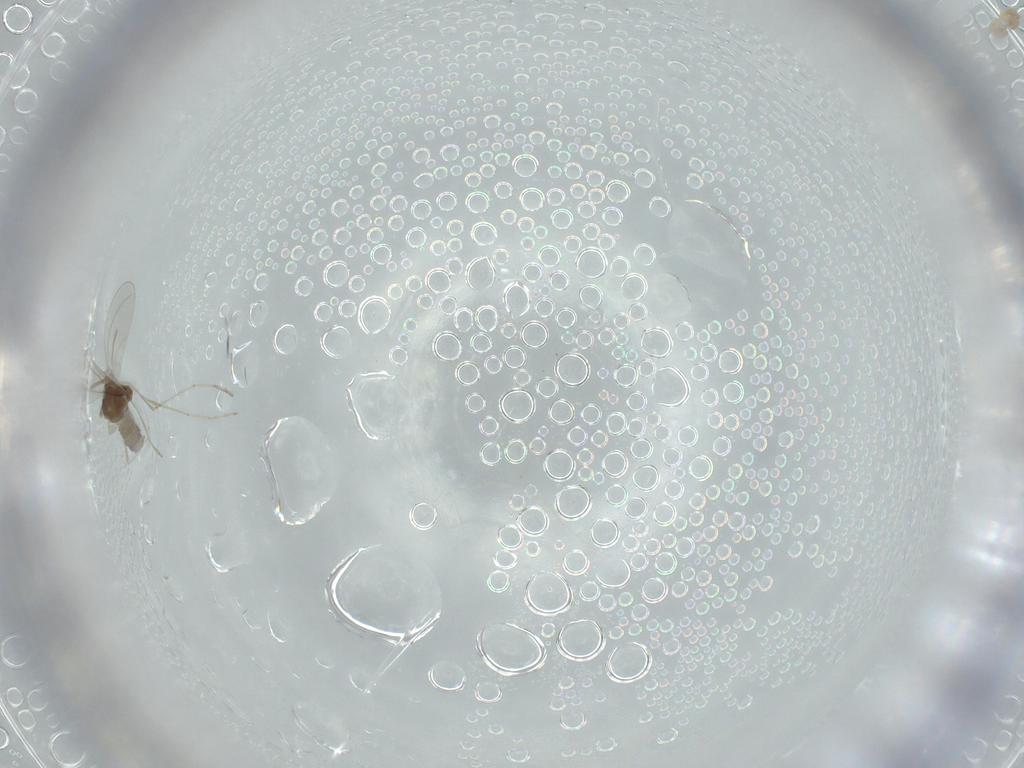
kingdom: Animalia
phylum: Arthropoda
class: Insecta
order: Diptera
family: Cecidomyiidae
